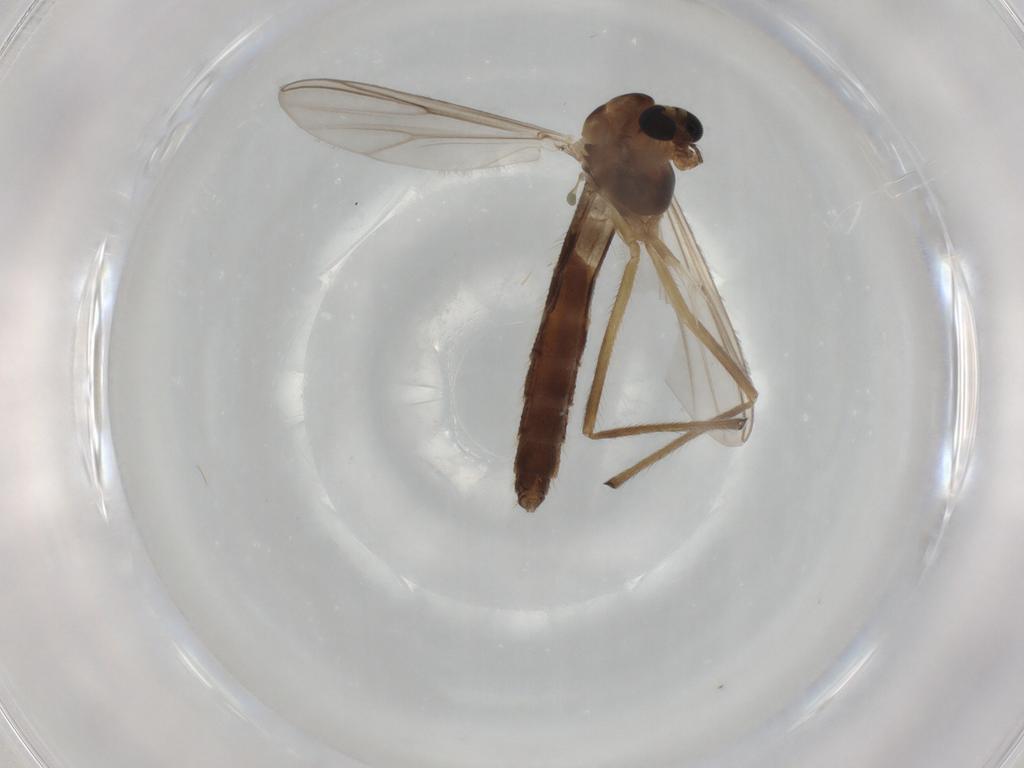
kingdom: Animalia
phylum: Arthropoda
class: Insecta
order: Diptera
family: Chironomidae
